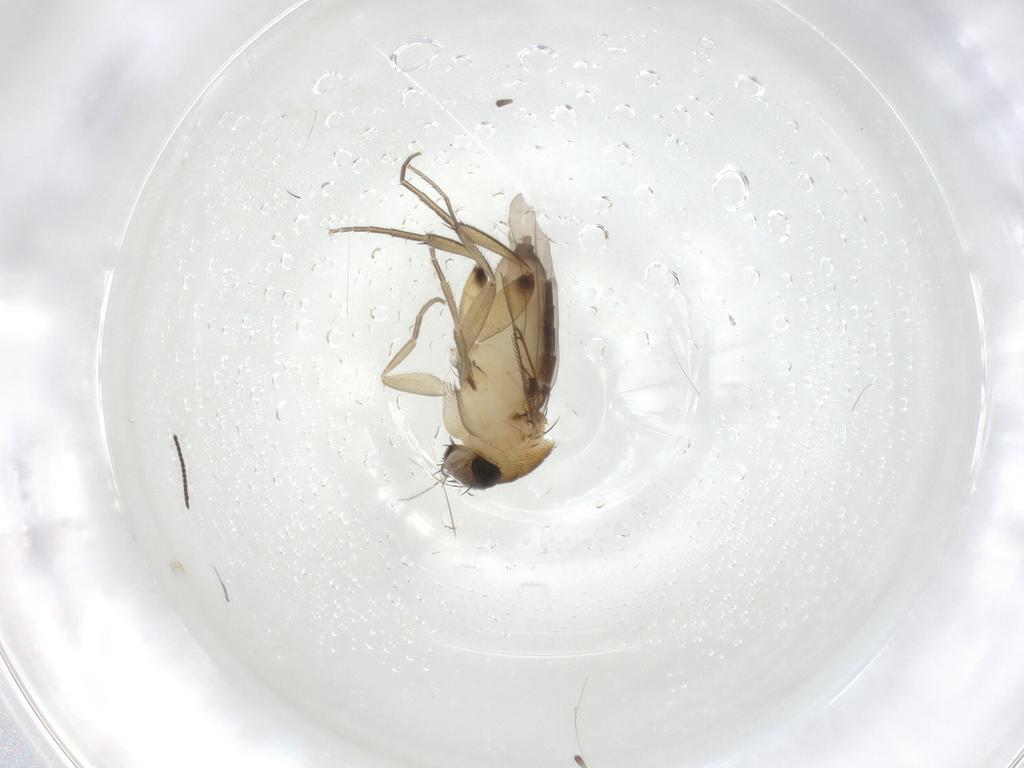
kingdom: Animalia
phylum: Arthropoda
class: Insecta
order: Diptera
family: Phoridae
